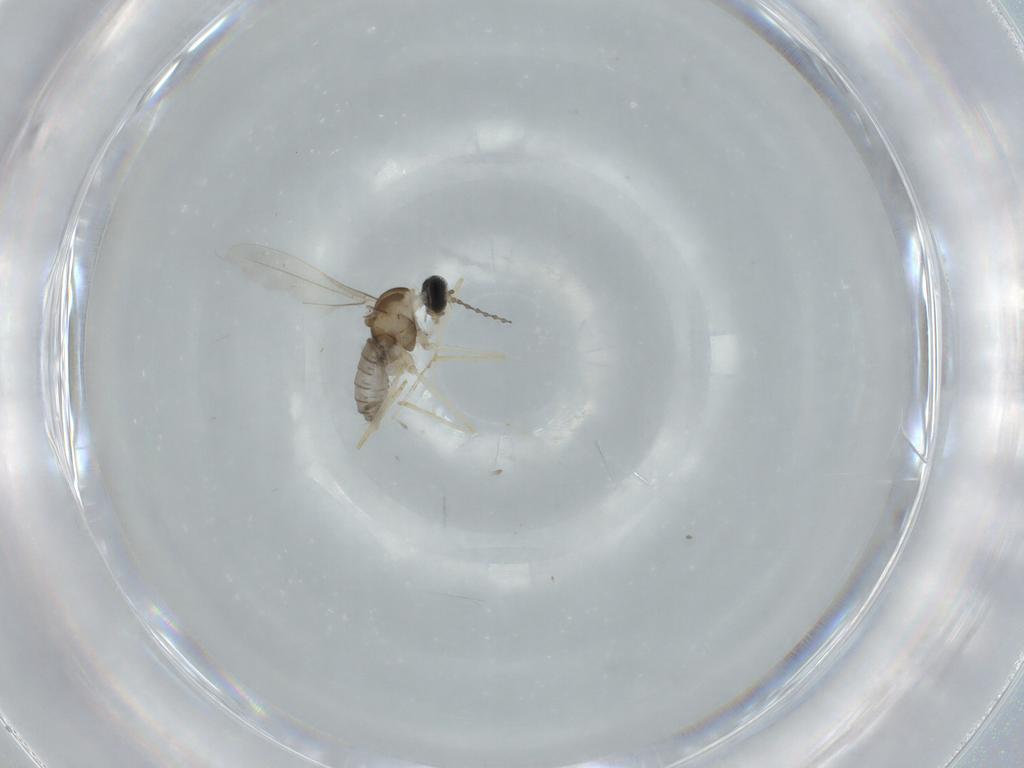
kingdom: Animalia
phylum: Arthropoda
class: Insecta
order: Diptera
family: Cecidomyiidae
